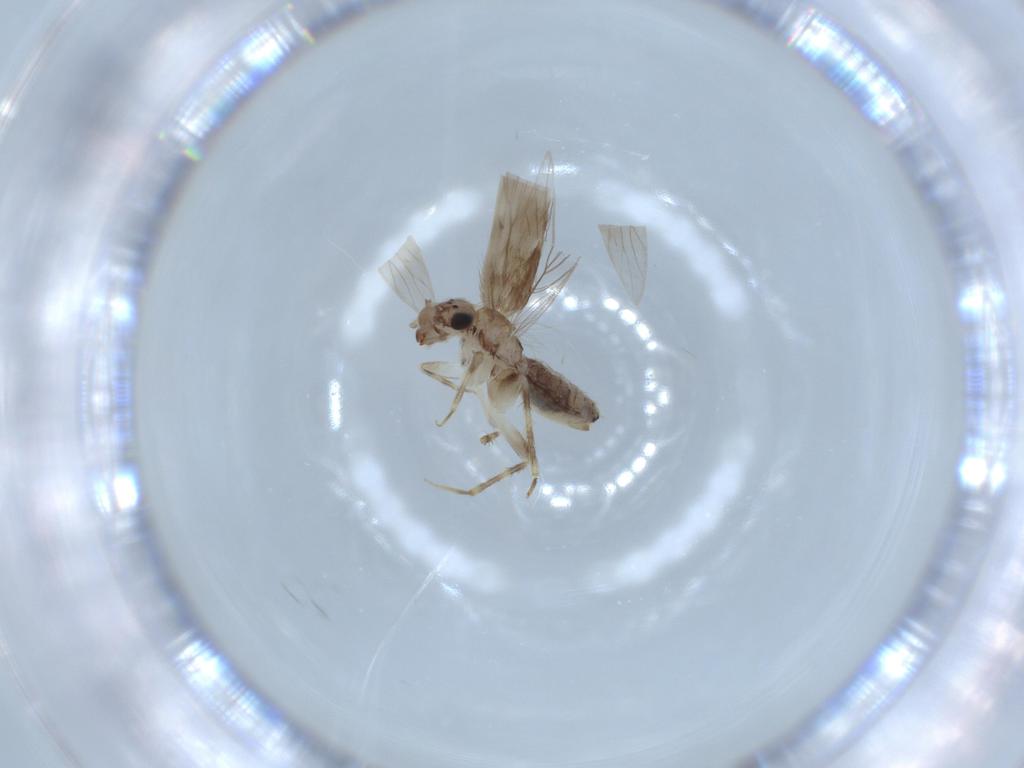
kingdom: Animalia
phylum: Arthropoda
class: Insecta
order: Psocodea
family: Lepidopsocidae
